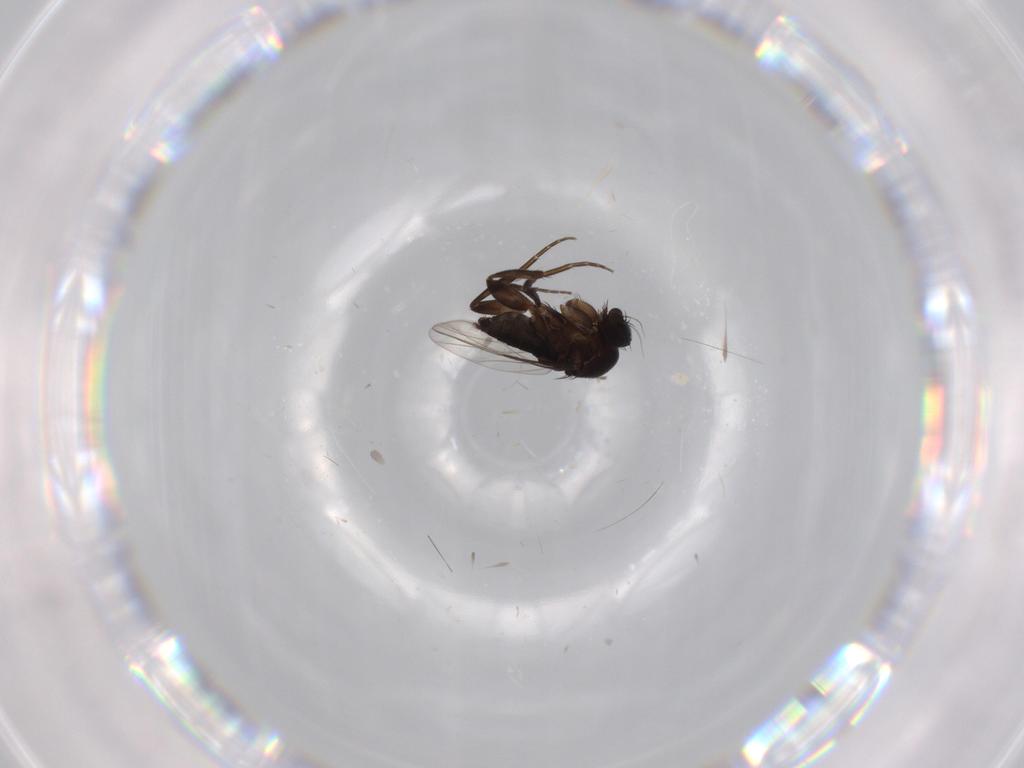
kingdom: Animalia
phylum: Arthropoda
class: Insecta
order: Diptera
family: Phoridae
